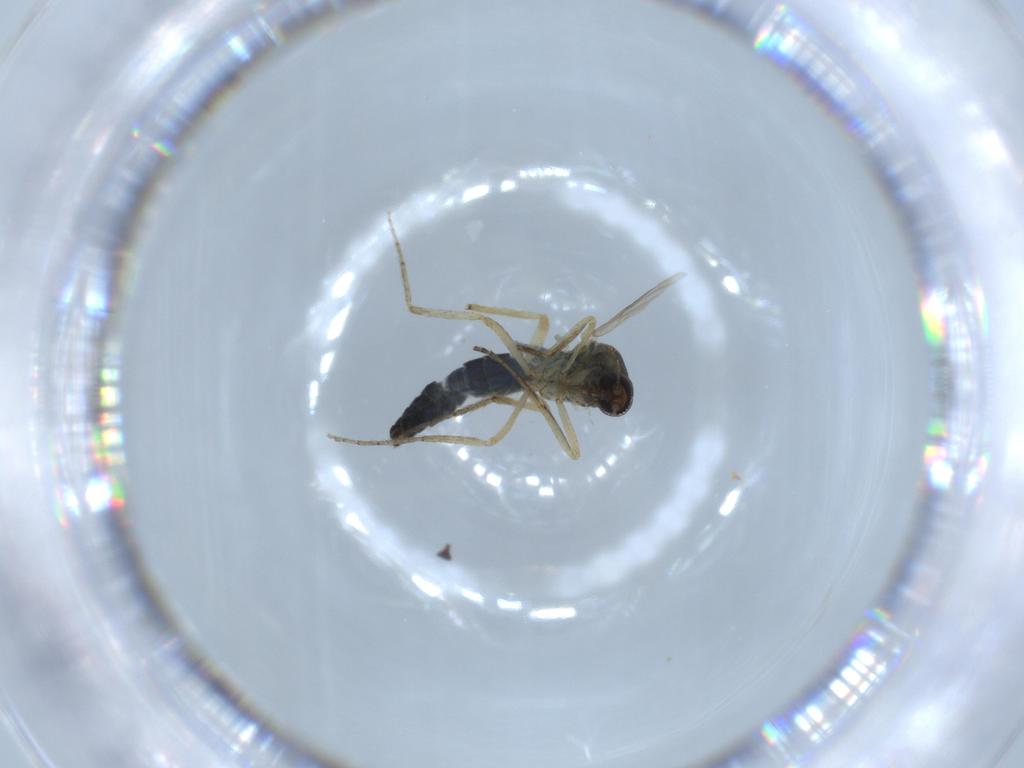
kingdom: Animalia
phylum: Arthropoda
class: Insecta
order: Diptera
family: Ceratopogonidae
